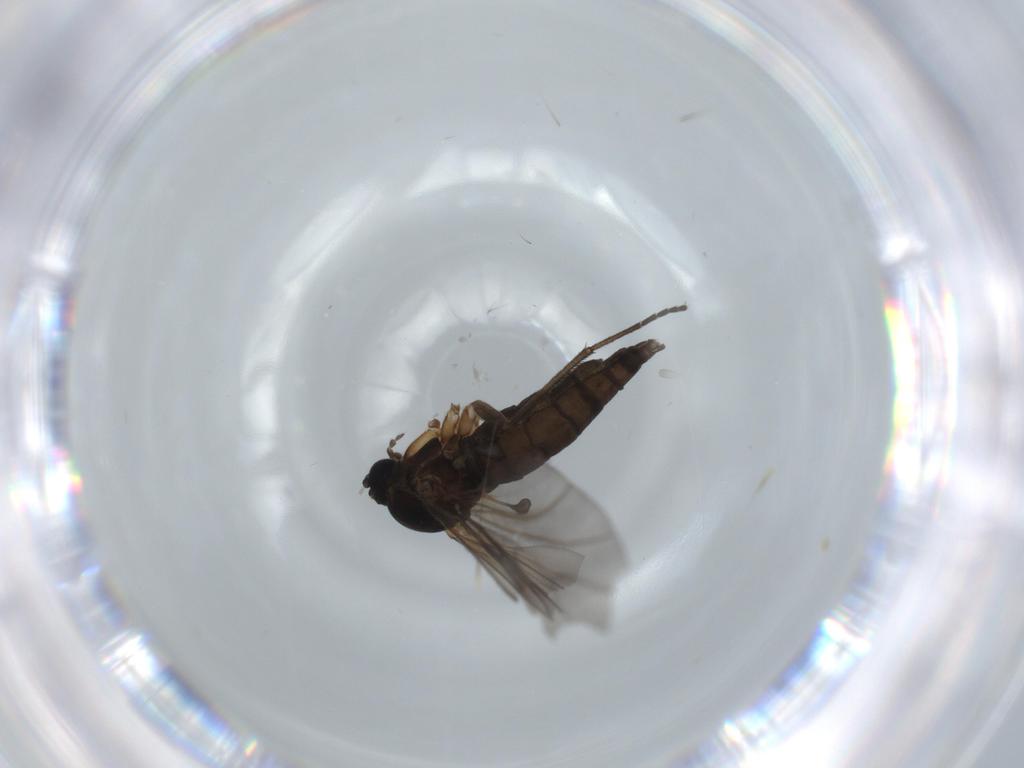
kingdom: Animalia
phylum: Arthropoda
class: Insecta
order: Diptera
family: Sciaridae
